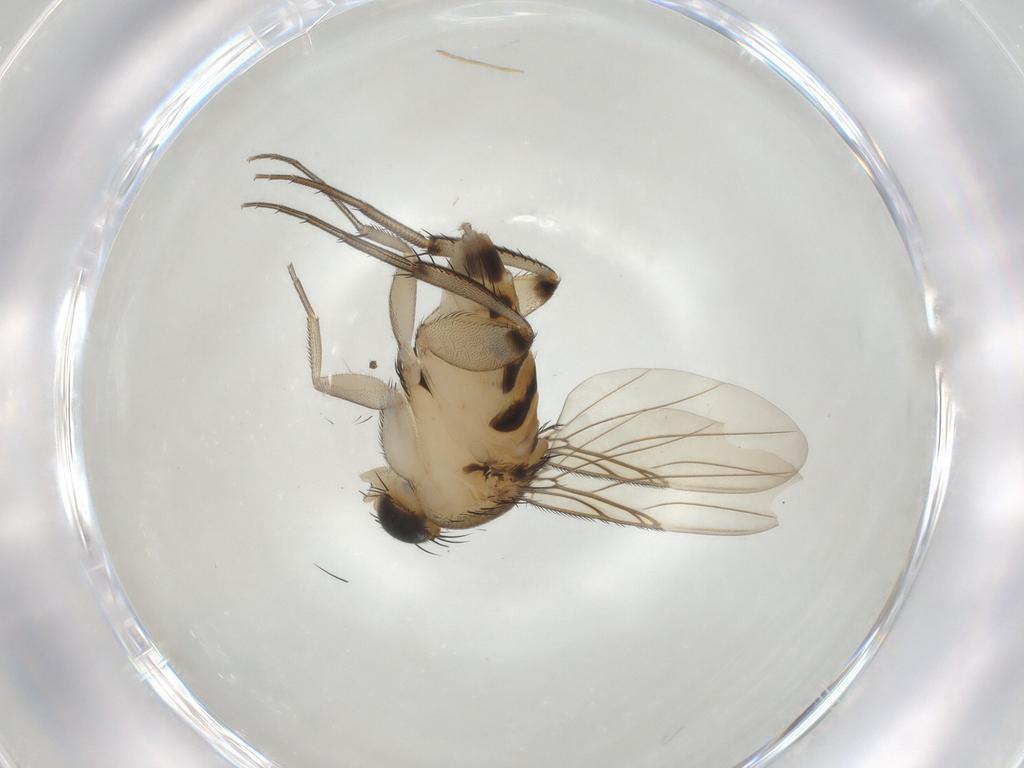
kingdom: Animalia
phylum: Arthropoda
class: Insecta
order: Diptera
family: Phoridae
